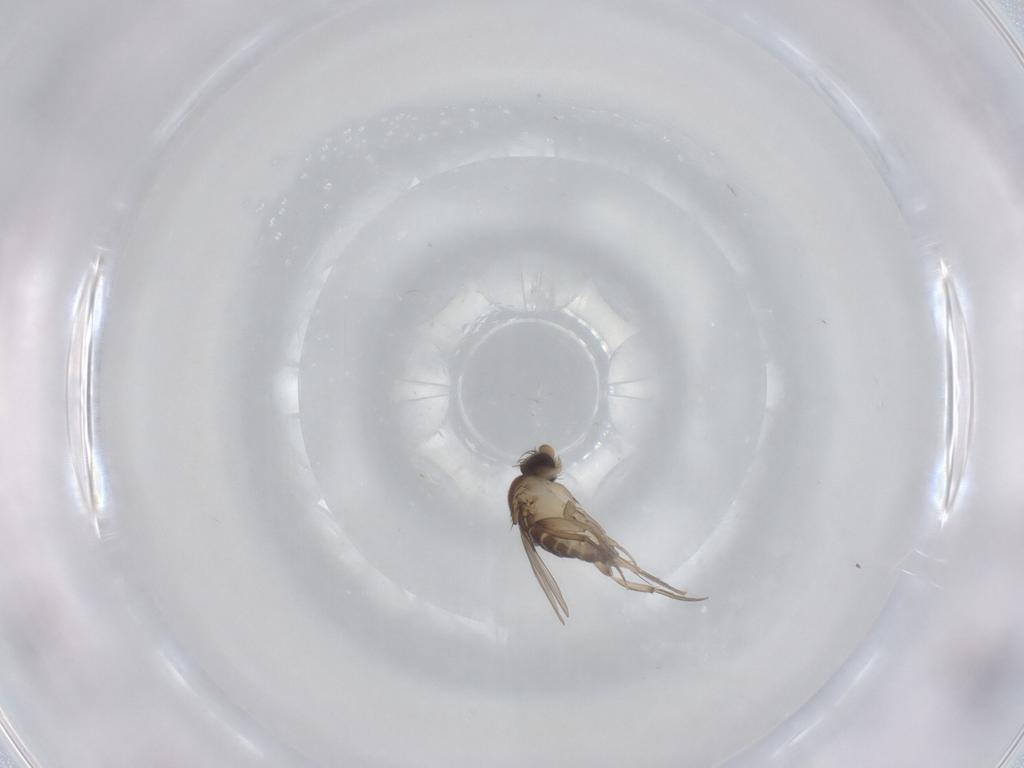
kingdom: Animalia
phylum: Arthropoda
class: Insecta
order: Diptera
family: Phoridae
